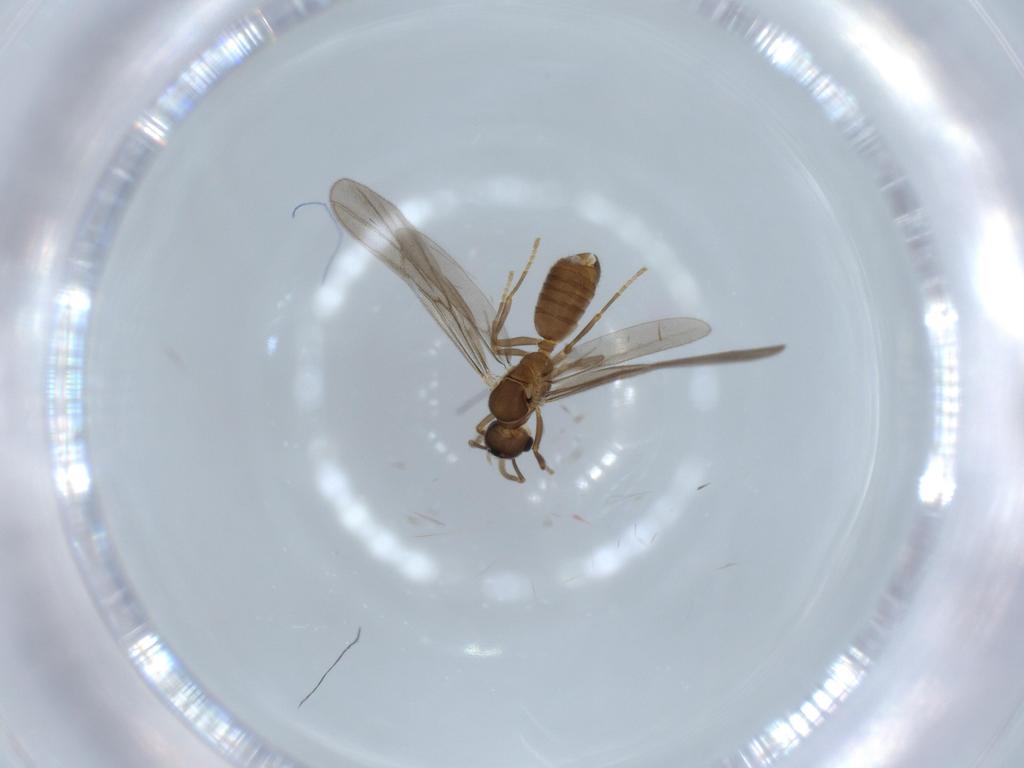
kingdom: Animalia
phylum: Arthropoda
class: Insecta
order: Hymenoptera
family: Formicidae
